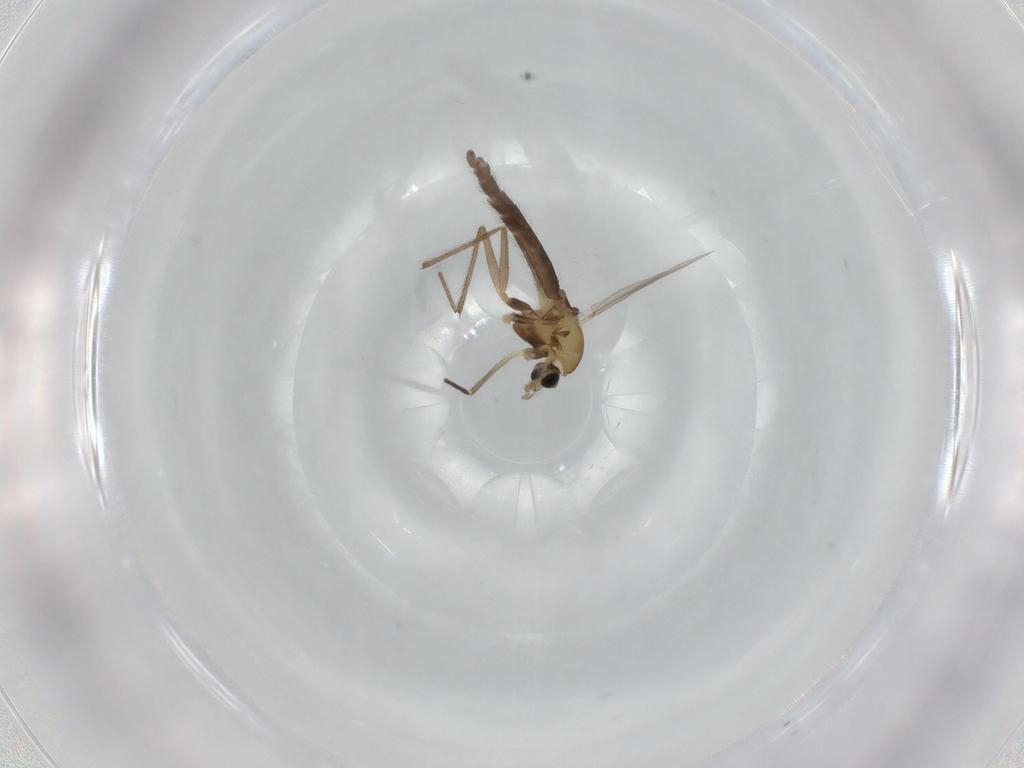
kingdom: Animalia
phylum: Arthropoda
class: Insecta
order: Diptera
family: Chironomidae
